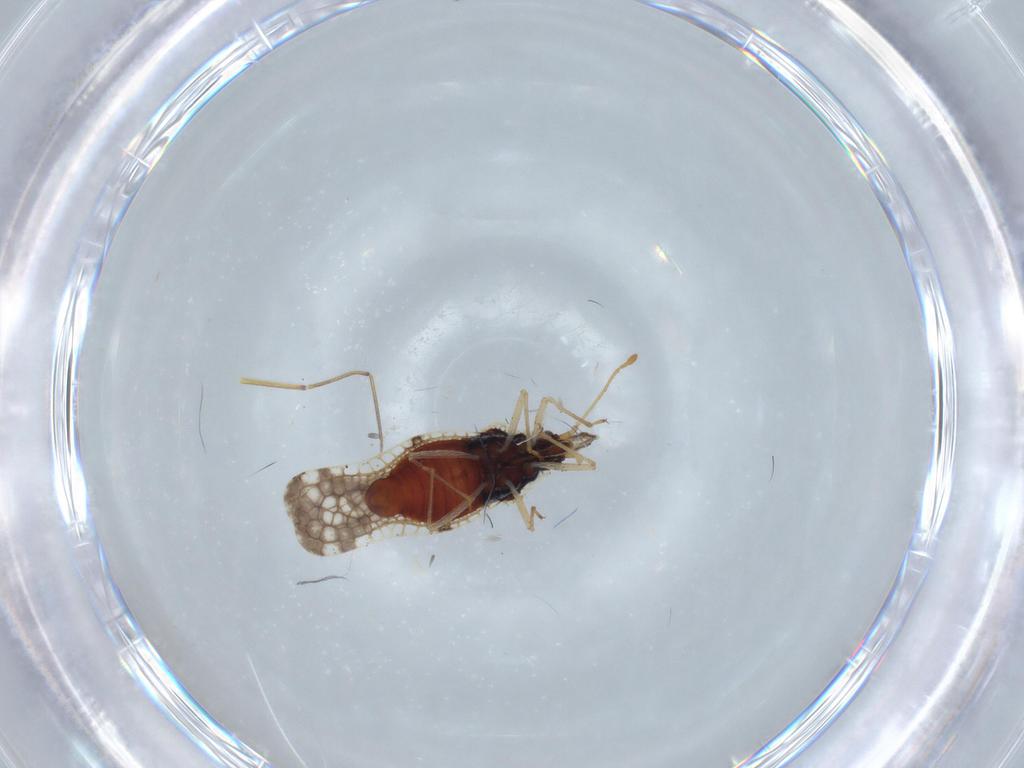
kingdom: Animalia
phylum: Arthropoda
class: Insecta
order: Hemiptera
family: Tingidae
